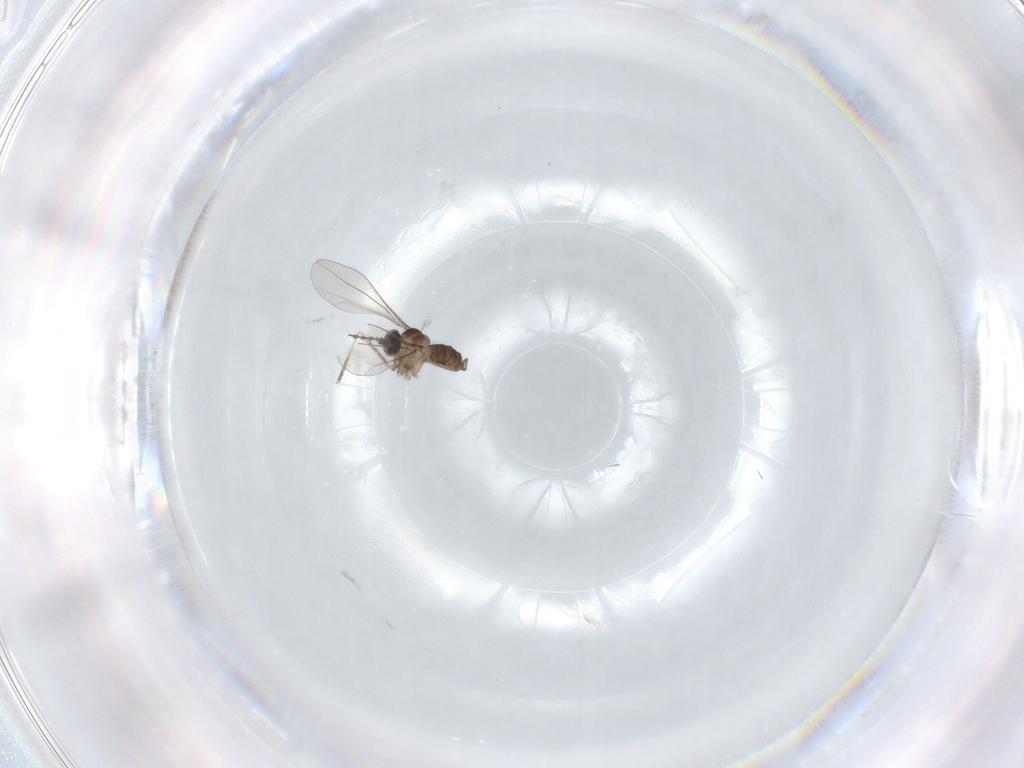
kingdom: Animalia
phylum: Arthropoda
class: Insecta
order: Diptera
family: Cecidomyiidae
